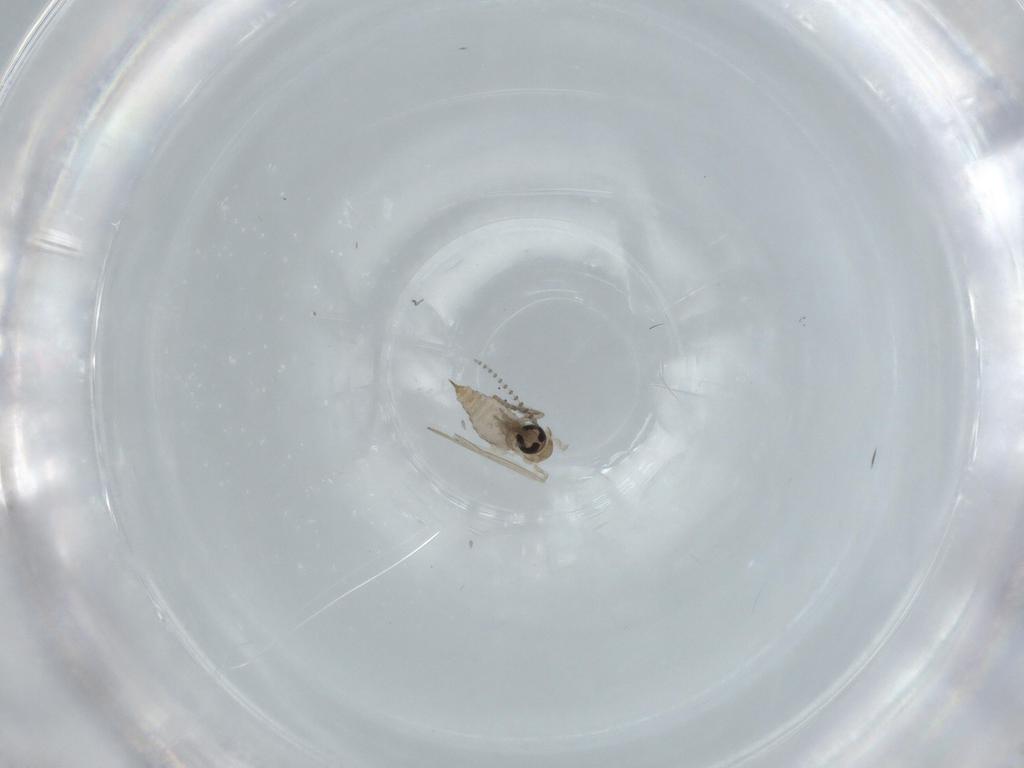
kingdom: Animalia
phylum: Arthropoda
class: Insecta
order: Diptera
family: Psychodidae
